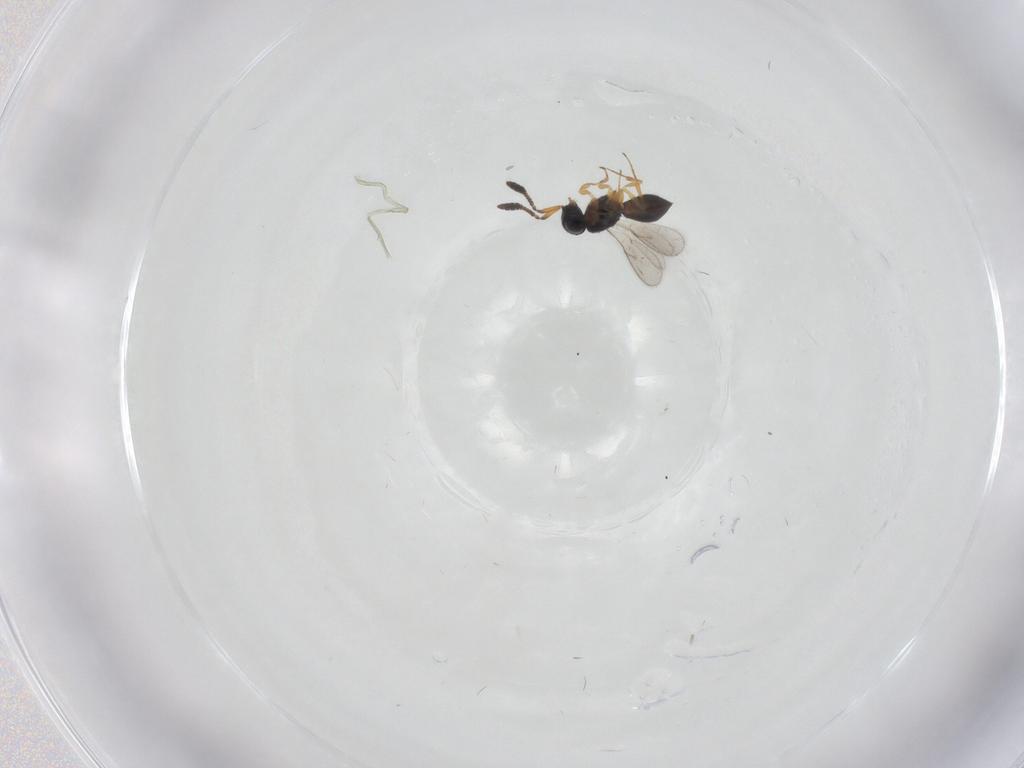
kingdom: Animalia
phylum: Arthropoda
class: Insecta
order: Hymenoptera
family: Scelionidae
